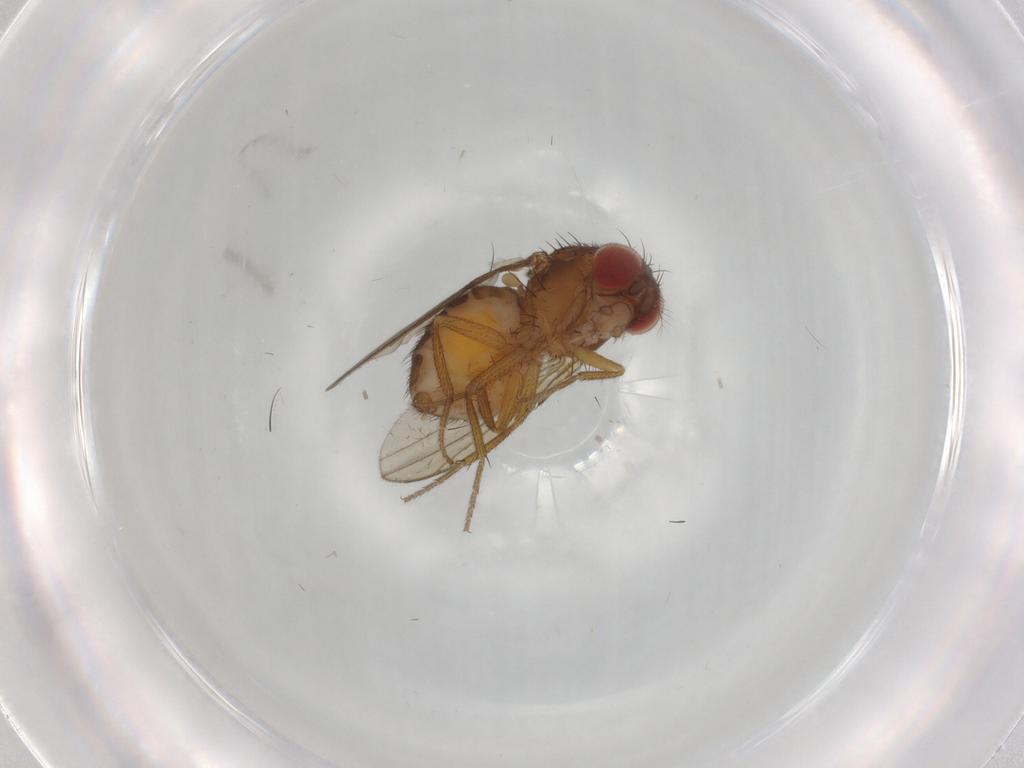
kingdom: Animalia
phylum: Arthropoda
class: Insecta
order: Diptera
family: Drosophilidae
